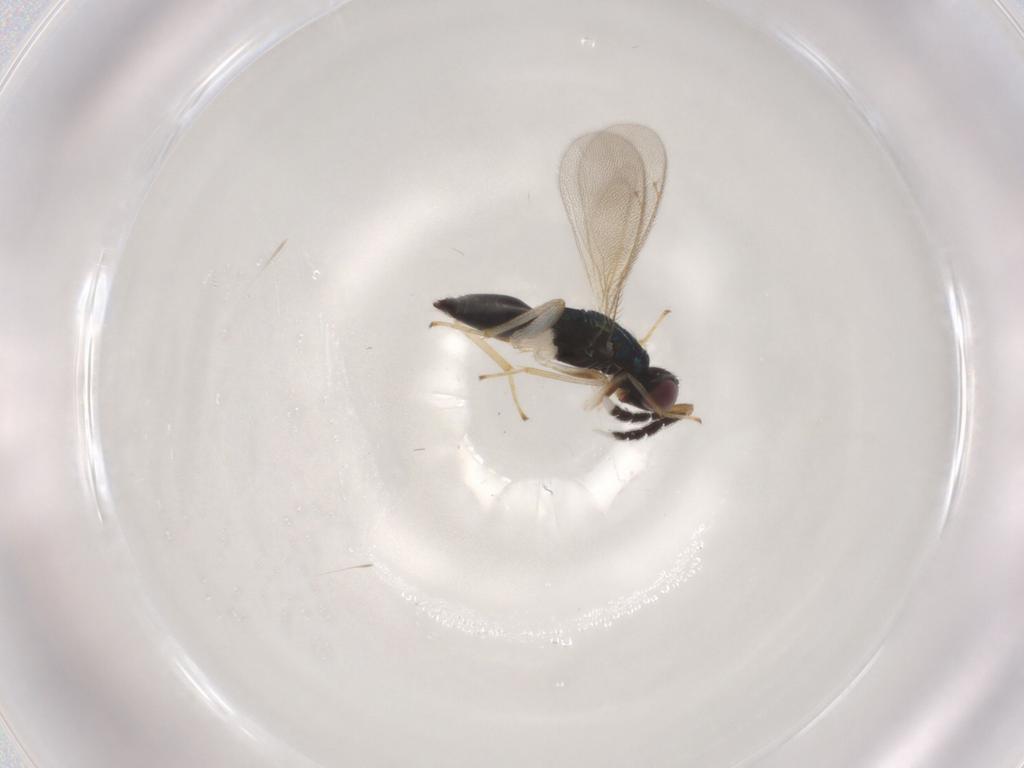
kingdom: Animalia
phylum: Arthropoda
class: Insecta
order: Hymenoptera
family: Eulophidae
